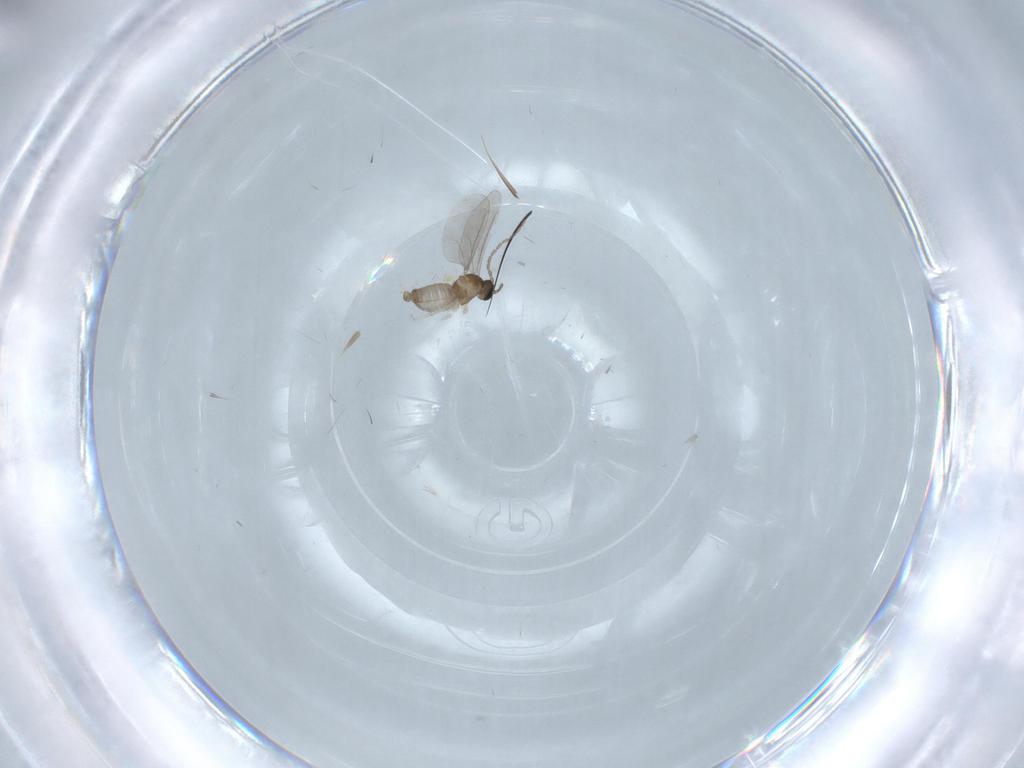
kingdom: Animalia
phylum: Arthropoda
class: Insecta
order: Diptera
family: Cecidomyiidae
